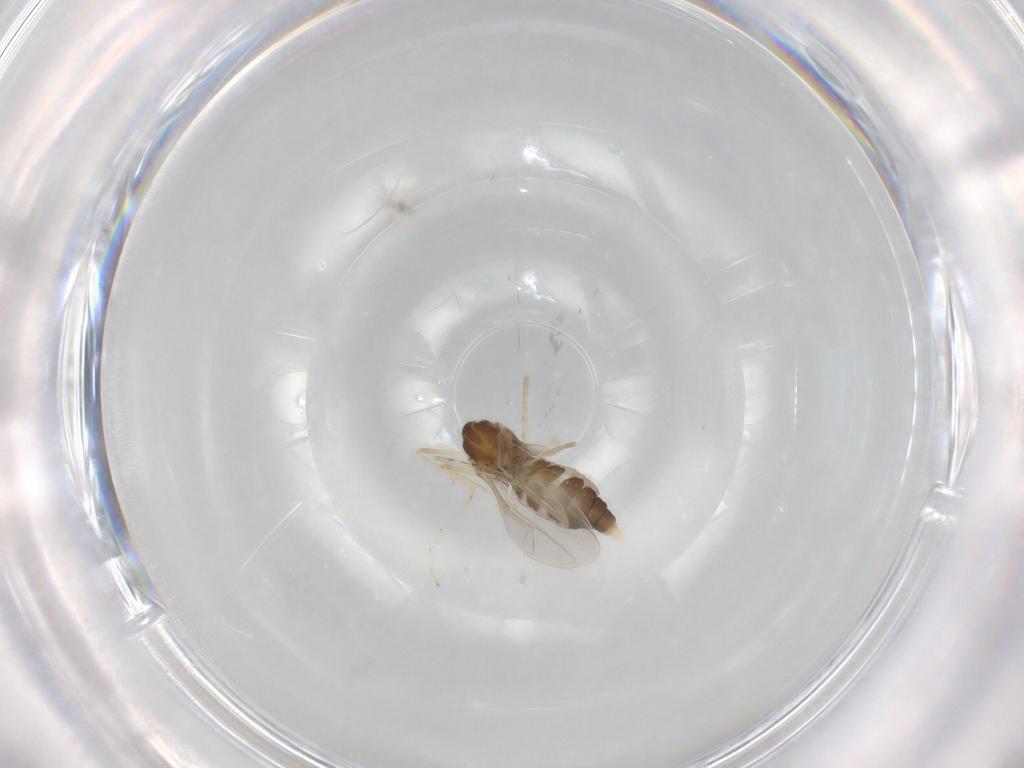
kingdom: Animalia
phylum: Arthropoda
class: Insecta
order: Diptera
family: Cecidomyiidae
